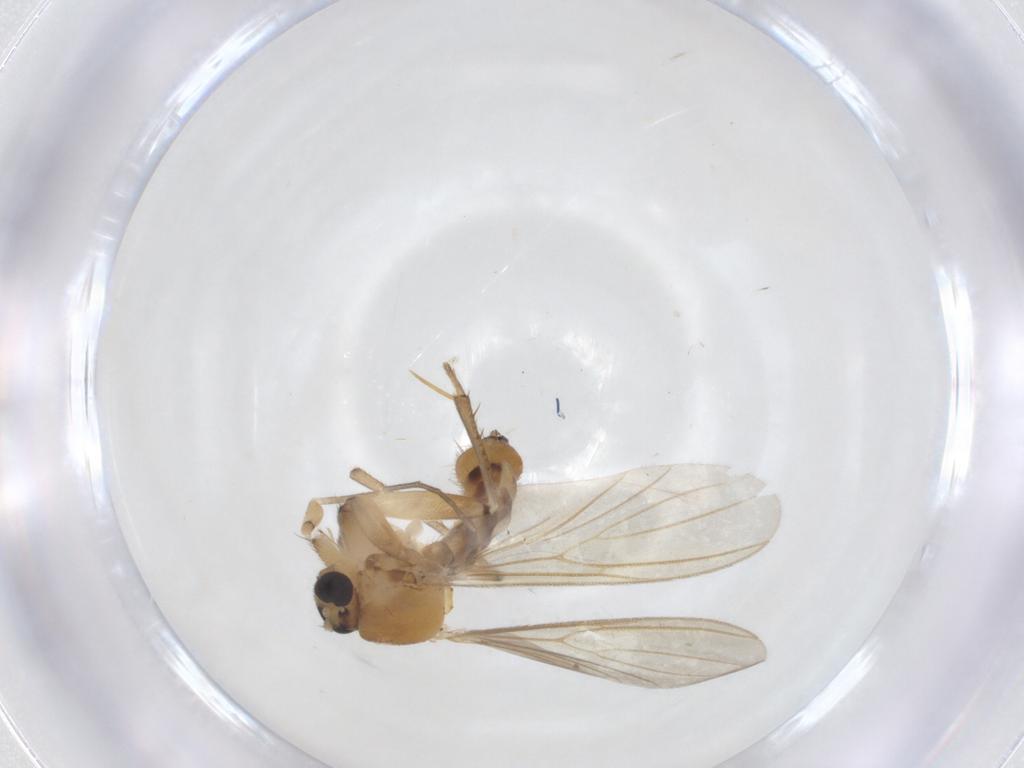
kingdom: Animalia
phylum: Arthropoda
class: Insecta
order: Diptera
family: Mycetophilidae
